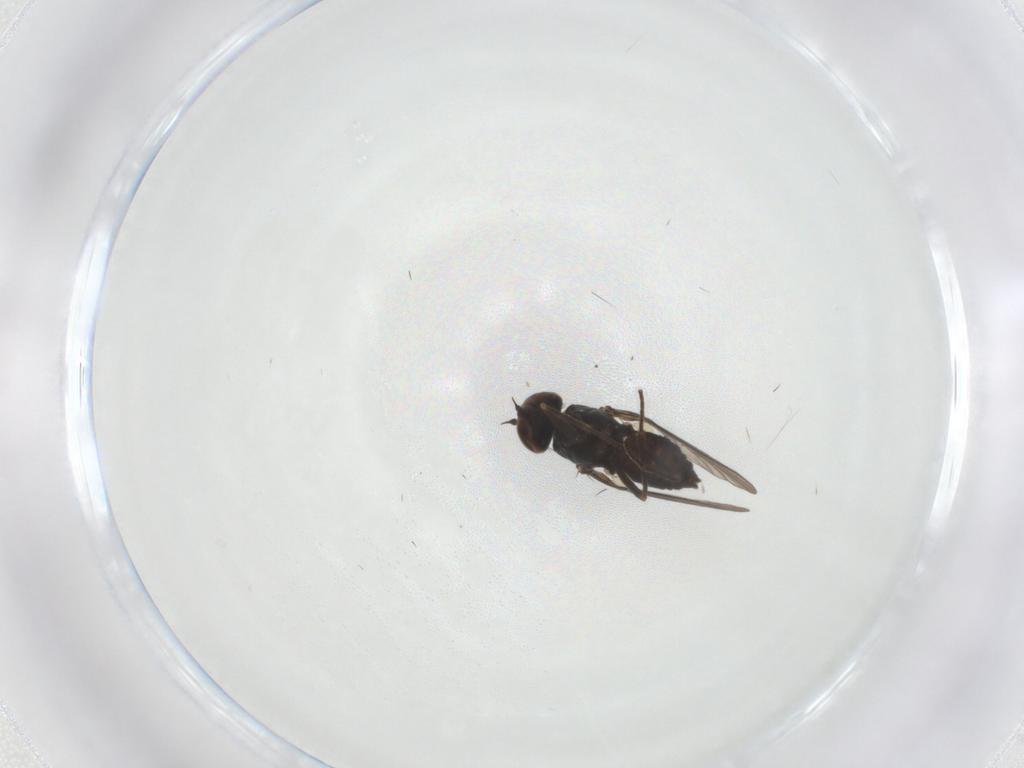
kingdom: Animalia
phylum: Arthropoda
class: Insecta
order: Diptera
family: Dolichopodidae
